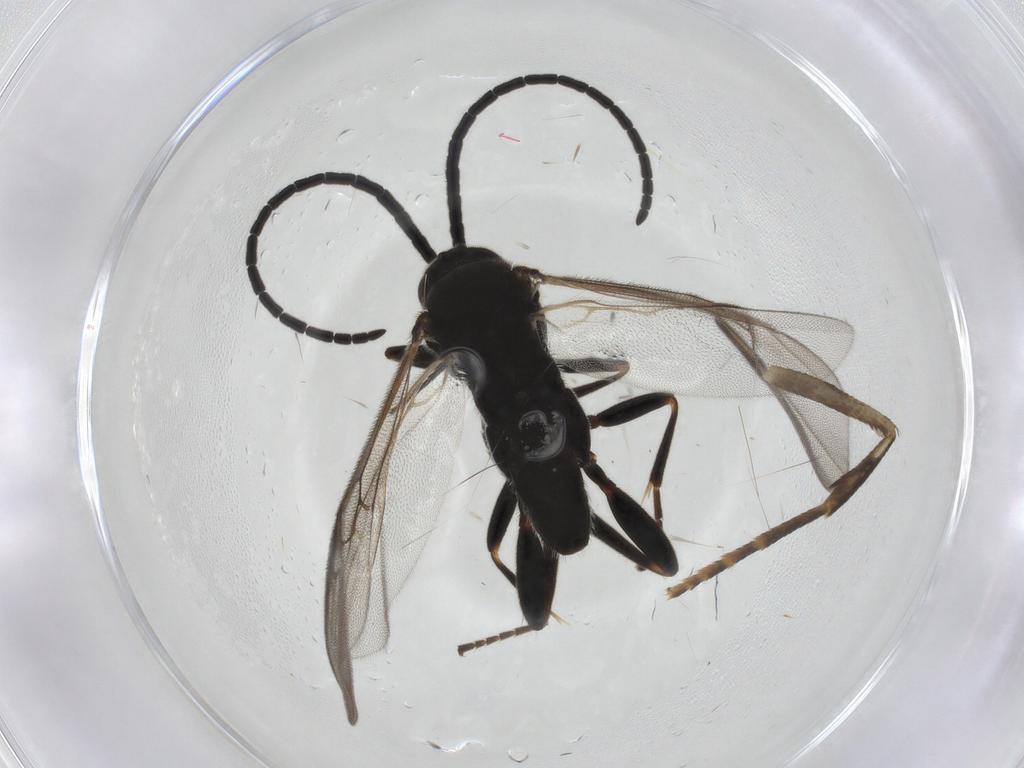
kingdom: Animalia
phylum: Arthropoda
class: Insecta
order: Hymenoptera
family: Braconidae
